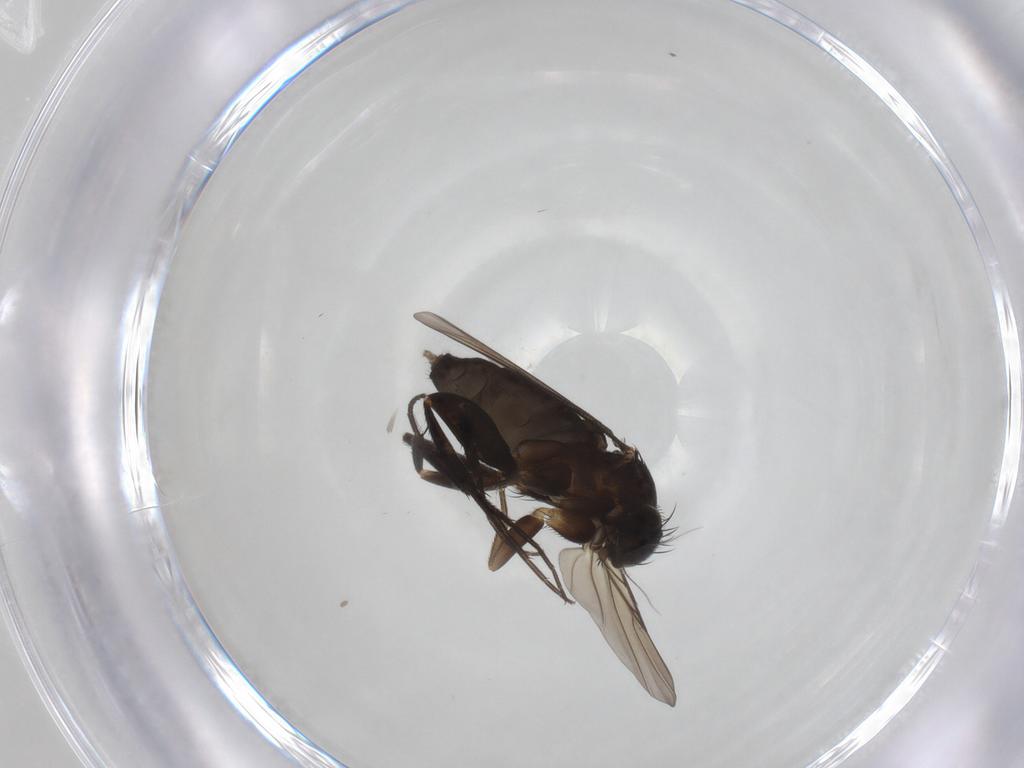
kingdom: Animalia
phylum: Arthropoda
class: Insecta
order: Diptera
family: Phoridae
